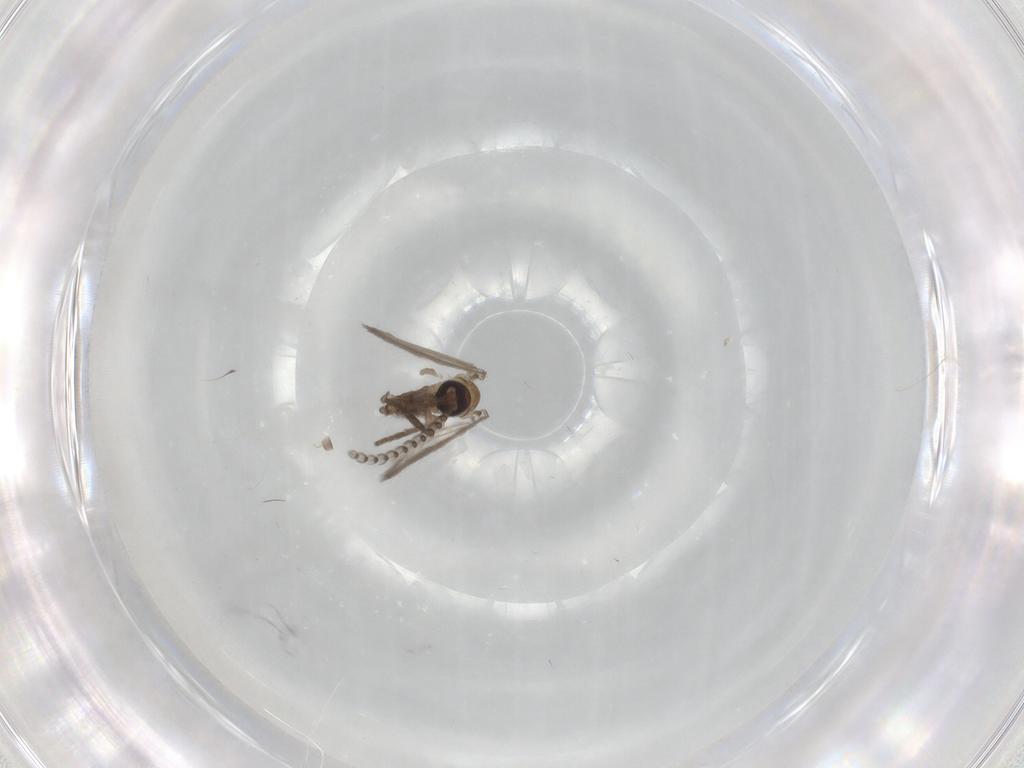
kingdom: Animalia
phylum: Arthropoda
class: Insecta
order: Diptera
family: Psychodidae
